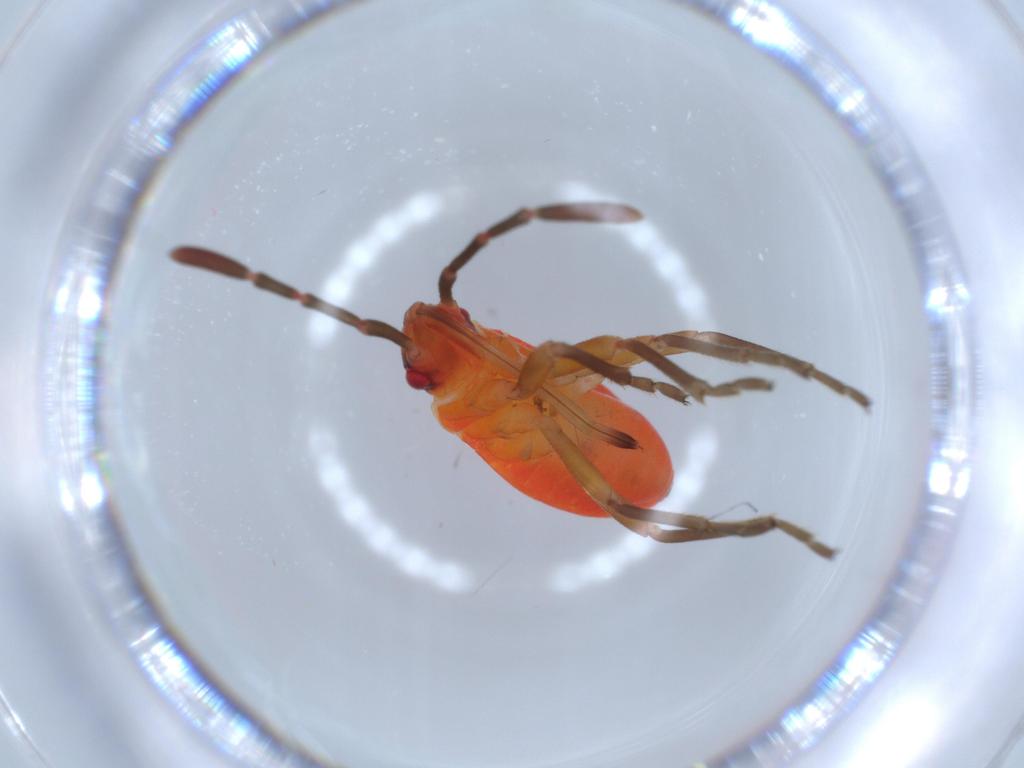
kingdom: Animalia
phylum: Arthropoda
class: Insecta
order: Hemiptera
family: Pyrrhocoridae
